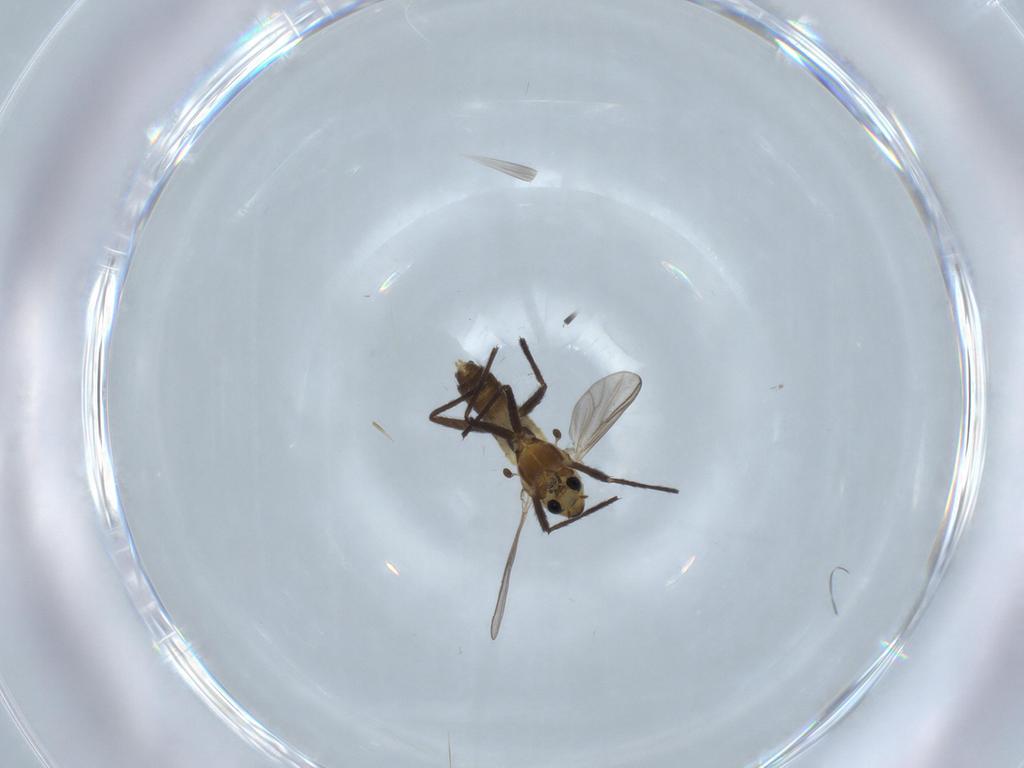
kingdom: Animalia
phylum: Arthropoda
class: Insecta
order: Diptera
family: Chironomidae
